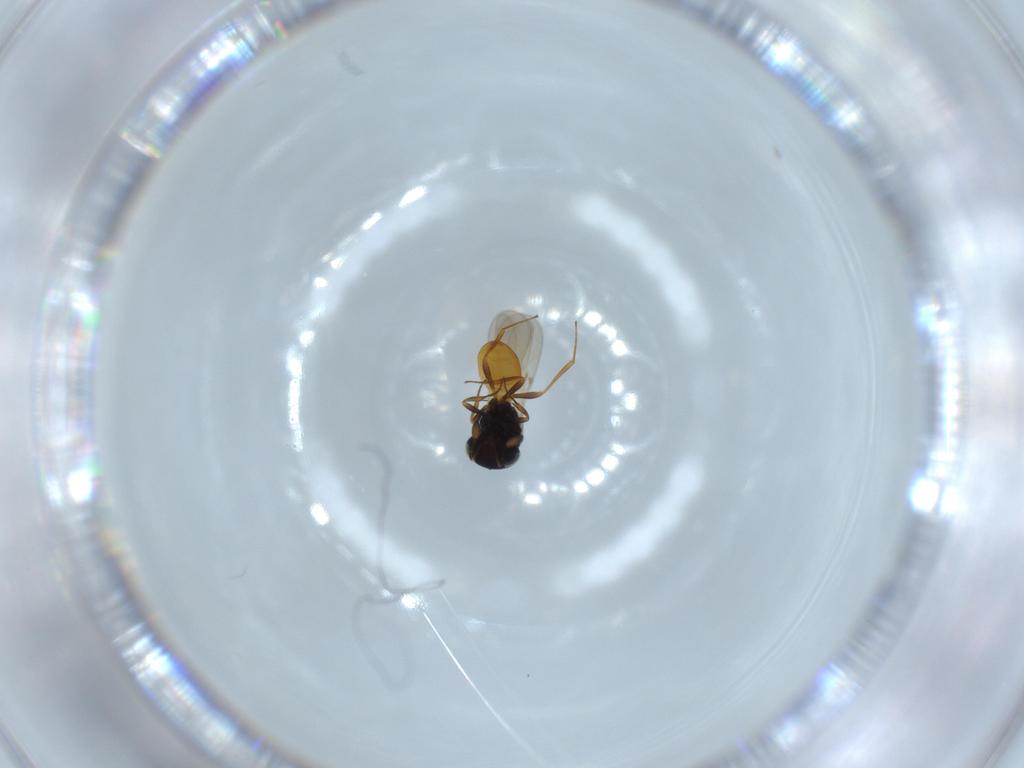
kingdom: Animalia
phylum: Arthropoda
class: Insecta
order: Hymenoptera
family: Scelionidae
